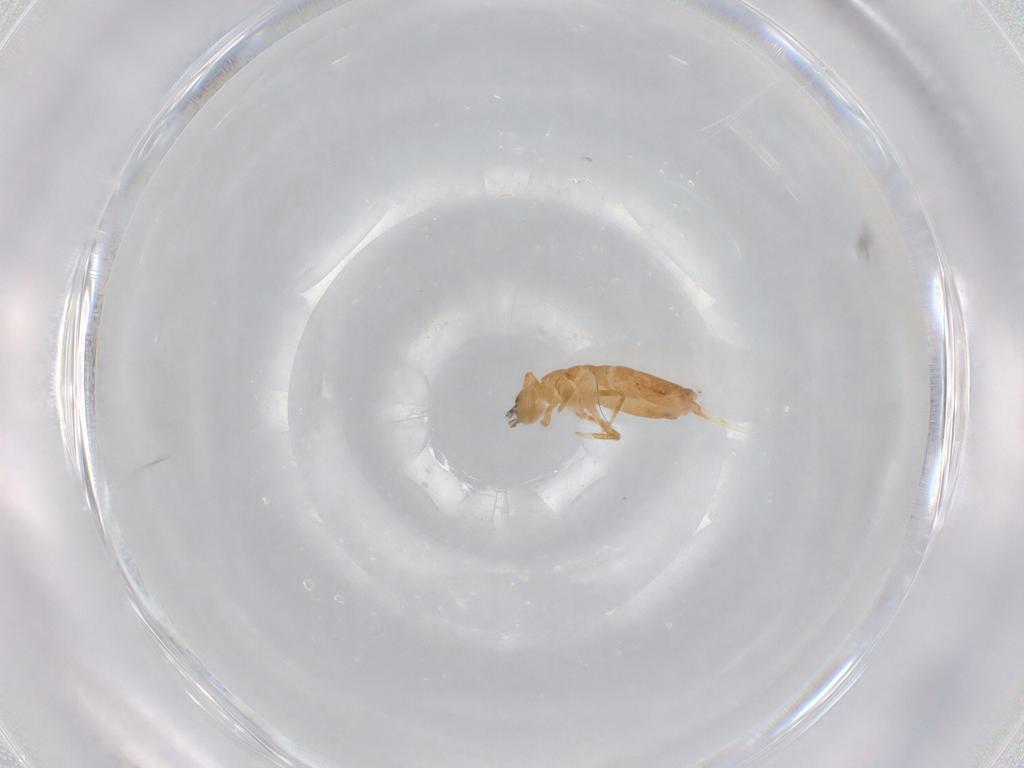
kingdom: Animalia
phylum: Arthropoda
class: Collembola
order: Entomobryomorpha
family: Entomobryidae
